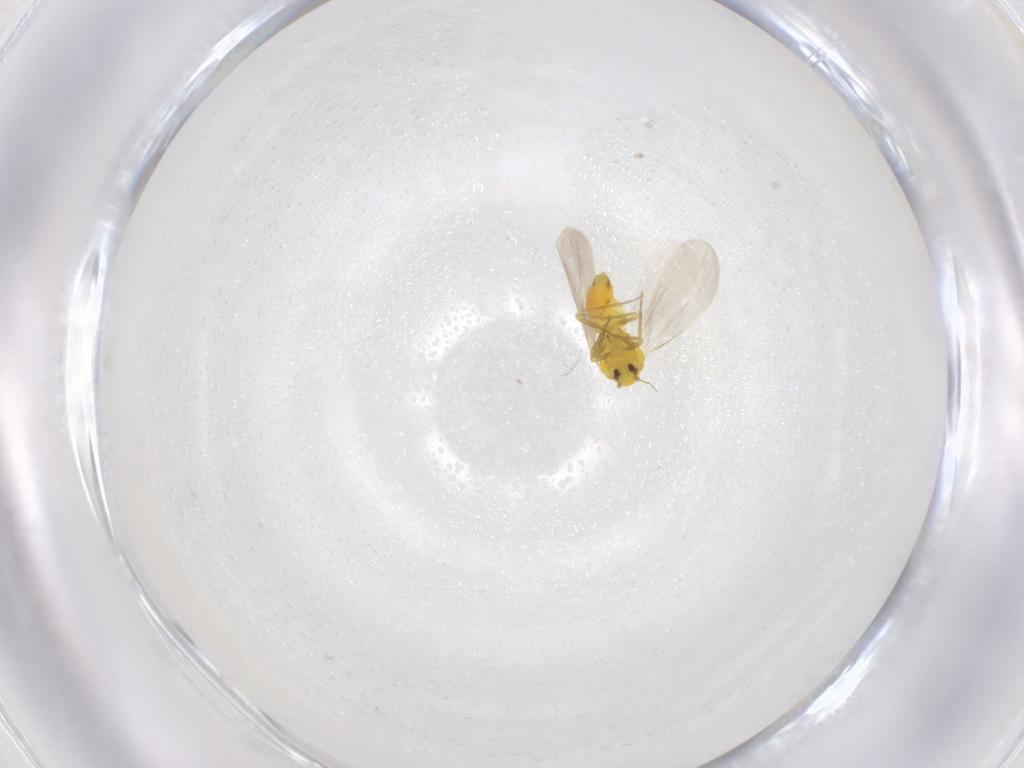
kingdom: Animalia
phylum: Arthropoda
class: Insecta
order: Hemiptera
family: Aleyrodidae
